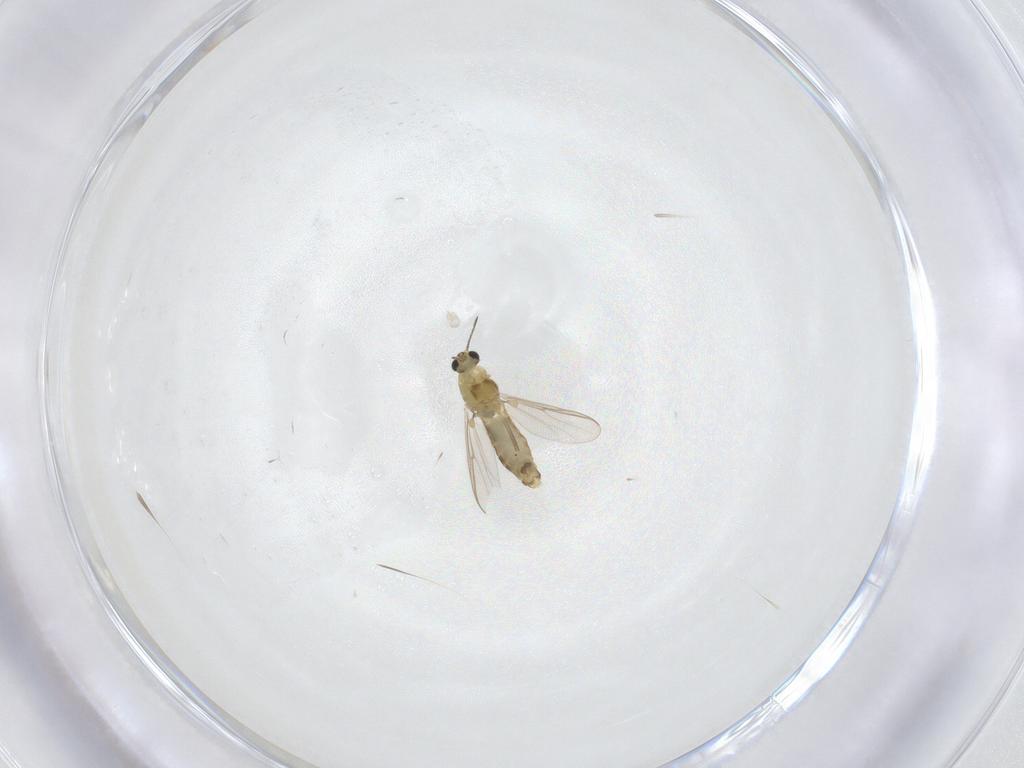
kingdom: Animalia
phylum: Arthropoda
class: Insecta
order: Diptera
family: Chironomidae
